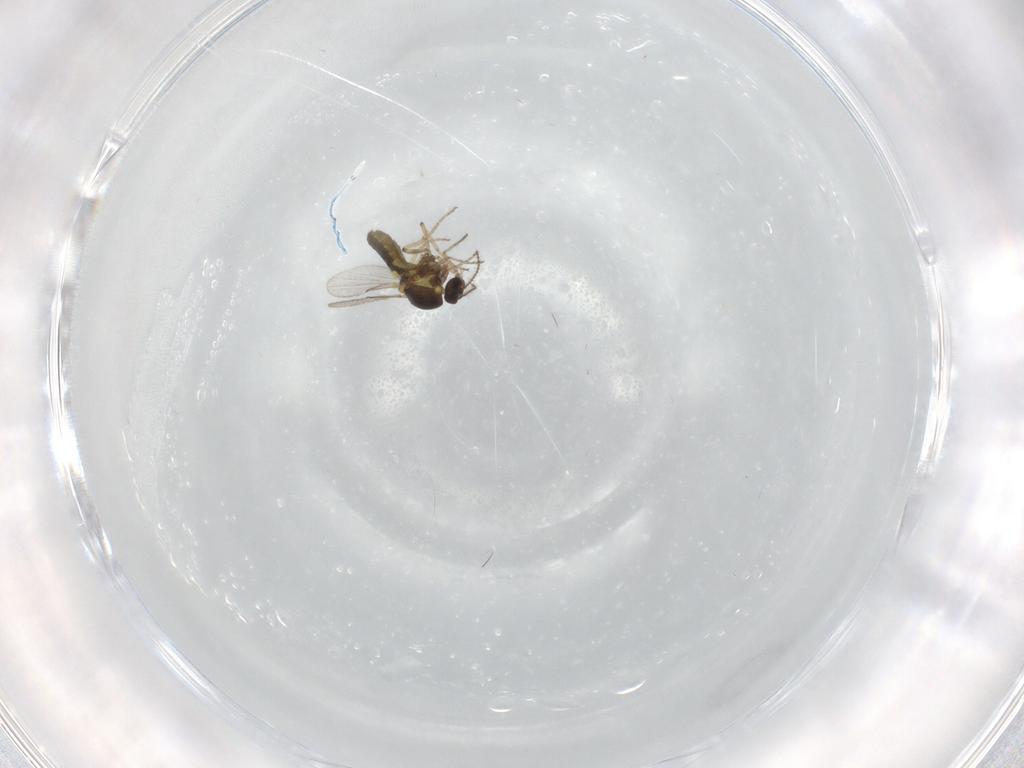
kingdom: Animalia
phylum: Arthropoda
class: Insecta
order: Diptera
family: Ceratopogonidae
